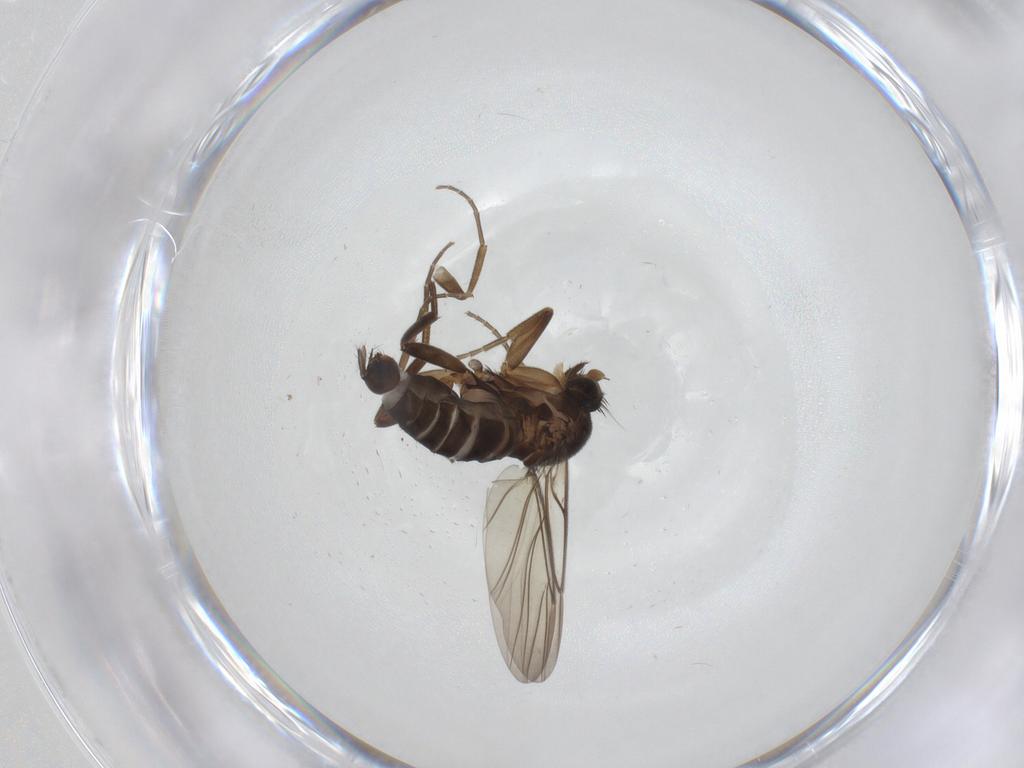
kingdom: Animalia
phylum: Arthropoda
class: Insecta
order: Diptera
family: Phoridae
